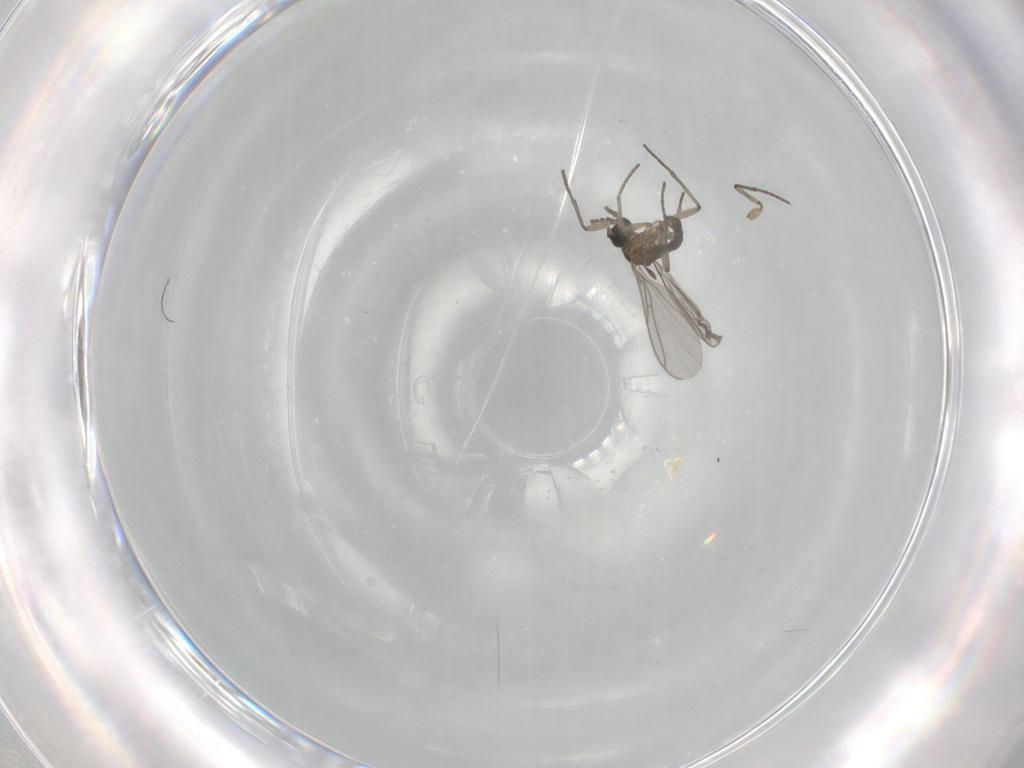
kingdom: Animalia
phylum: Arthropoda
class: Insecta
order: Diptera
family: Sciaridae
